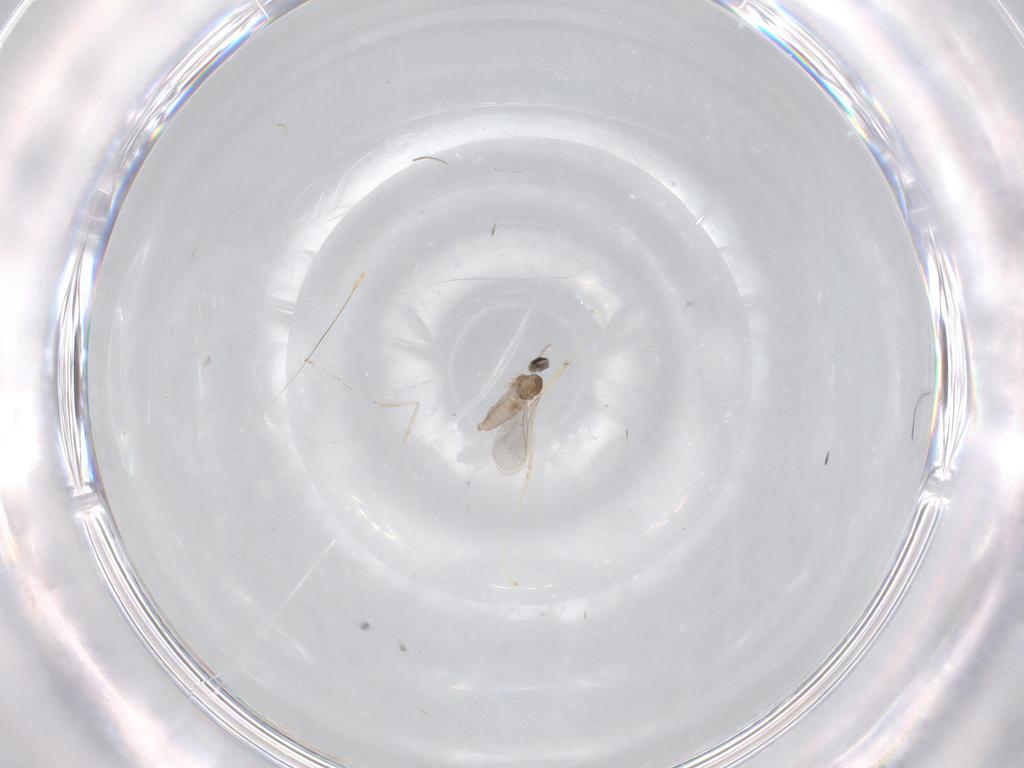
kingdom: Animalia
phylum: Arthropoda
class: Insecta
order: Diptera
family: Cecidomyiidae
